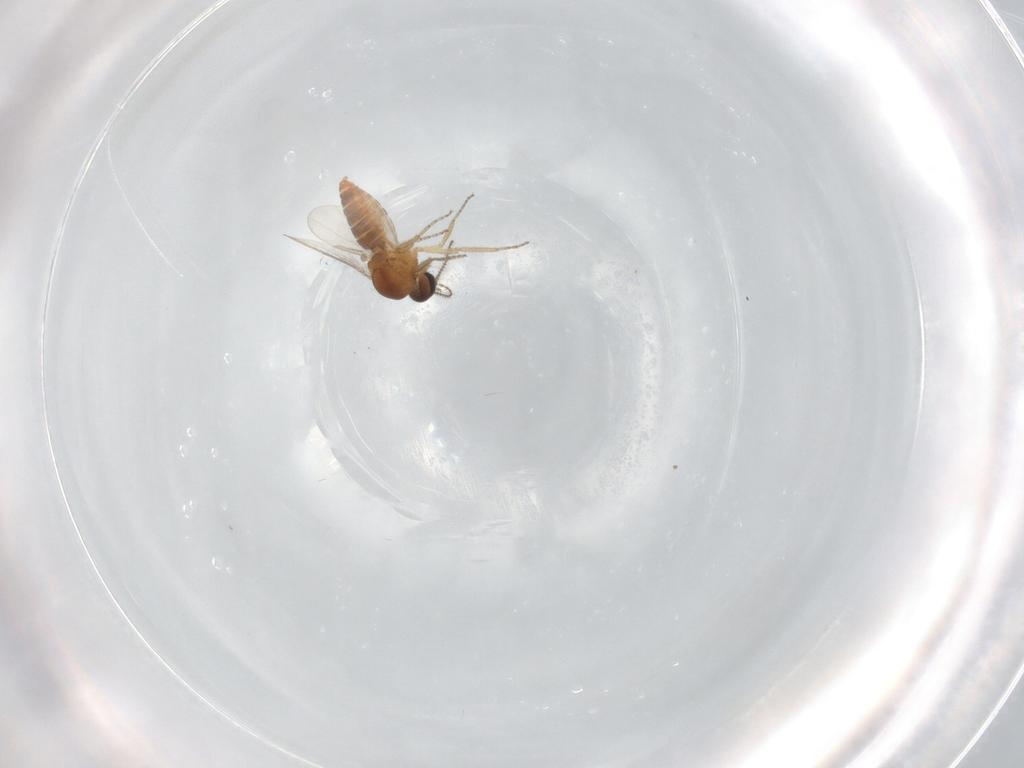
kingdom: Animalia
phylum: Arthropoda
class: Insecta
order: Diptera
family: Ceratopogonidae
